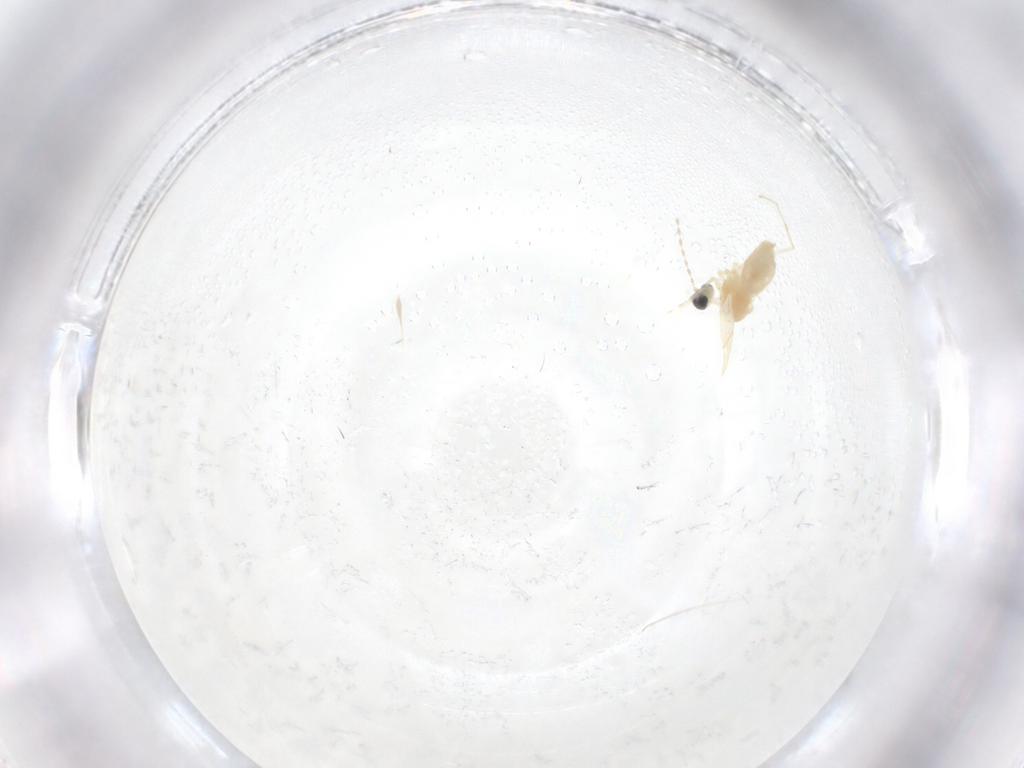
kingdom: Animalia
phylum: Arthropoda
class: Insecta
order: Diptera
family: Cecidomyiidae
